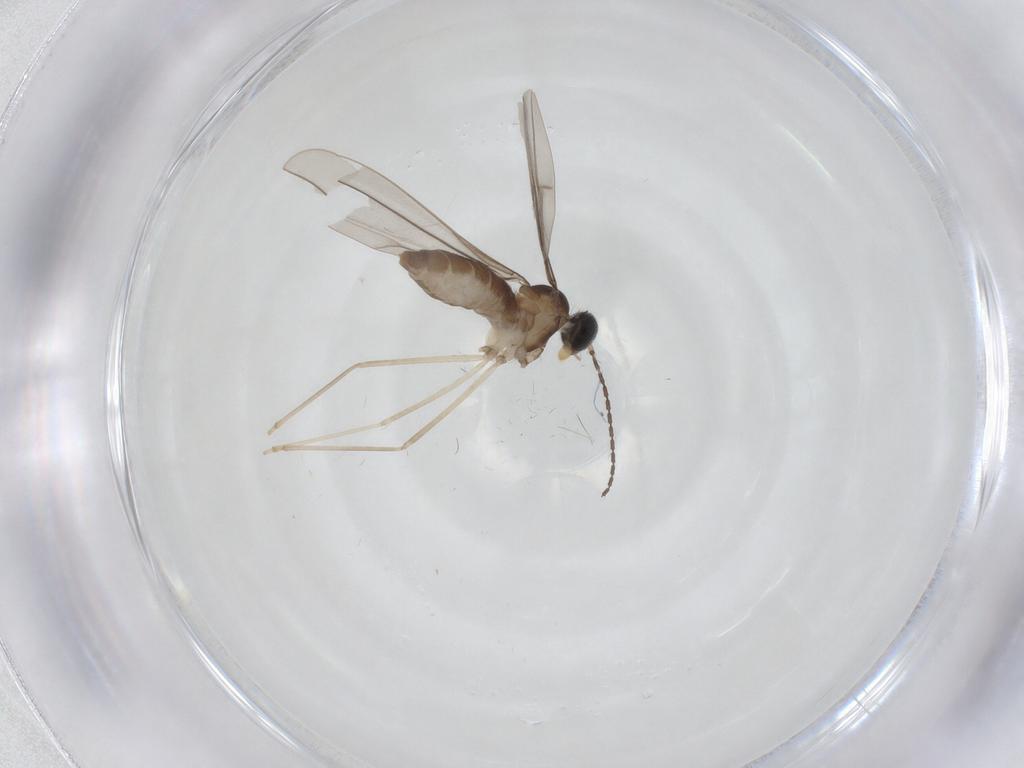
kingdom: Animalia
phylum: Arthropoda
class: Insecta
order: Diptera
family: Cecidomyiidae
